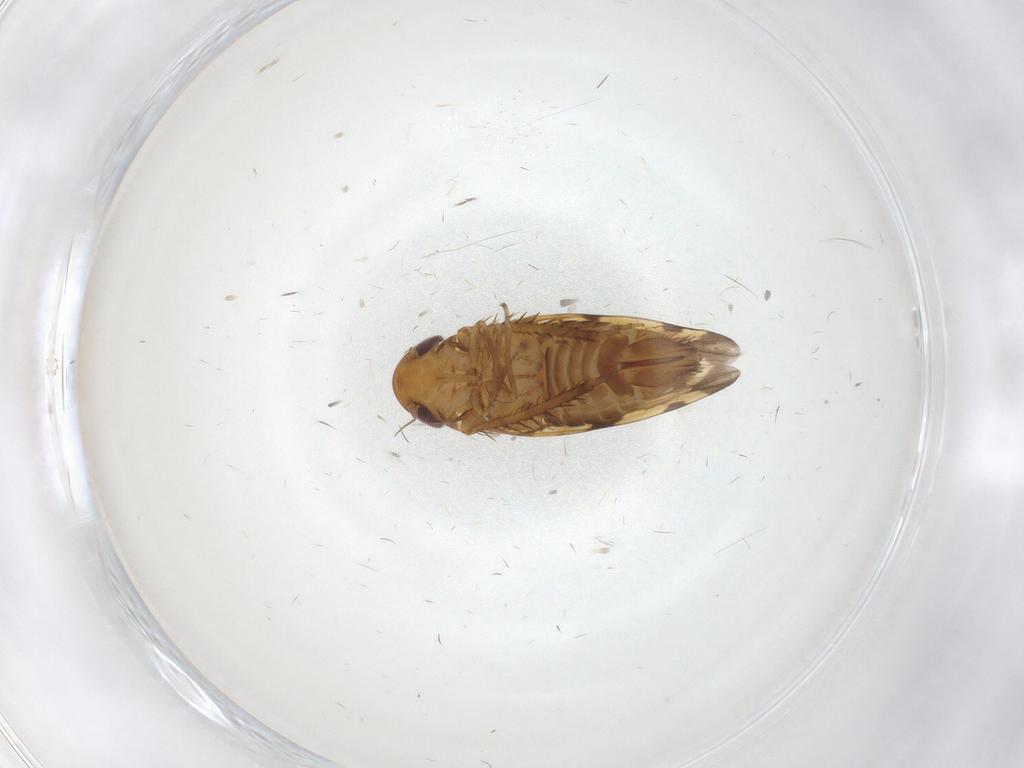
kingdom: Animalia
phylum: Arthropoda
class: Insecta
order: Hemiptera
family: Cicadellidae
